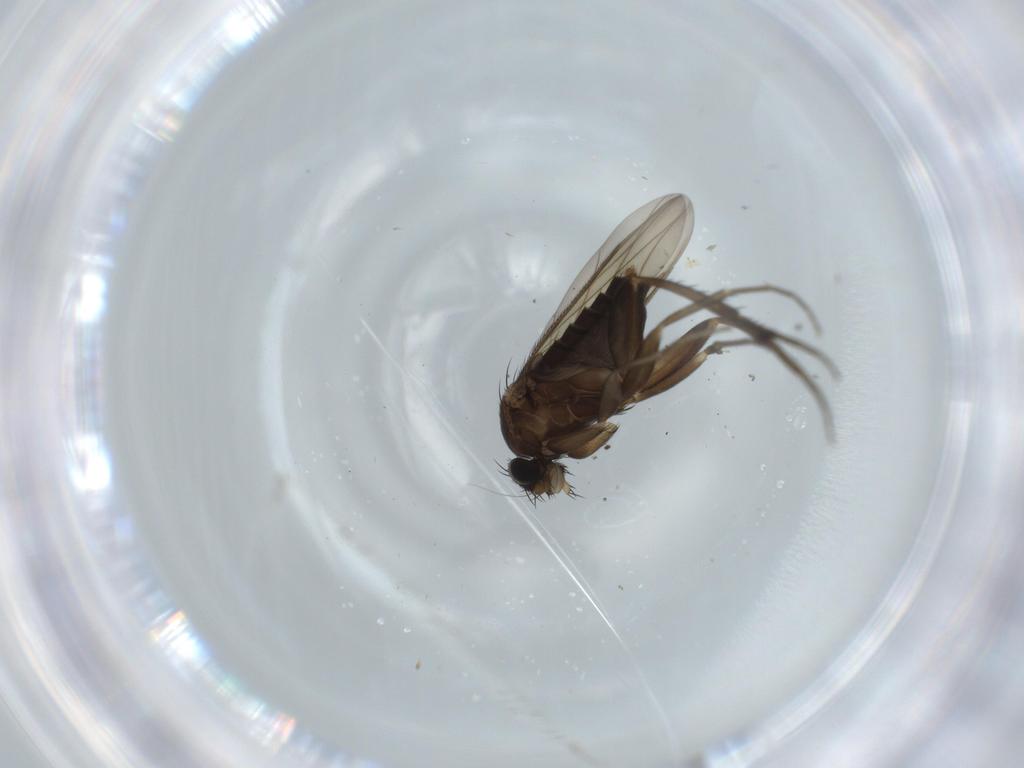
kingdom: Animalia
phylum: Arthropoda
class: Insecta
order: Diptera
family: Phoridae
